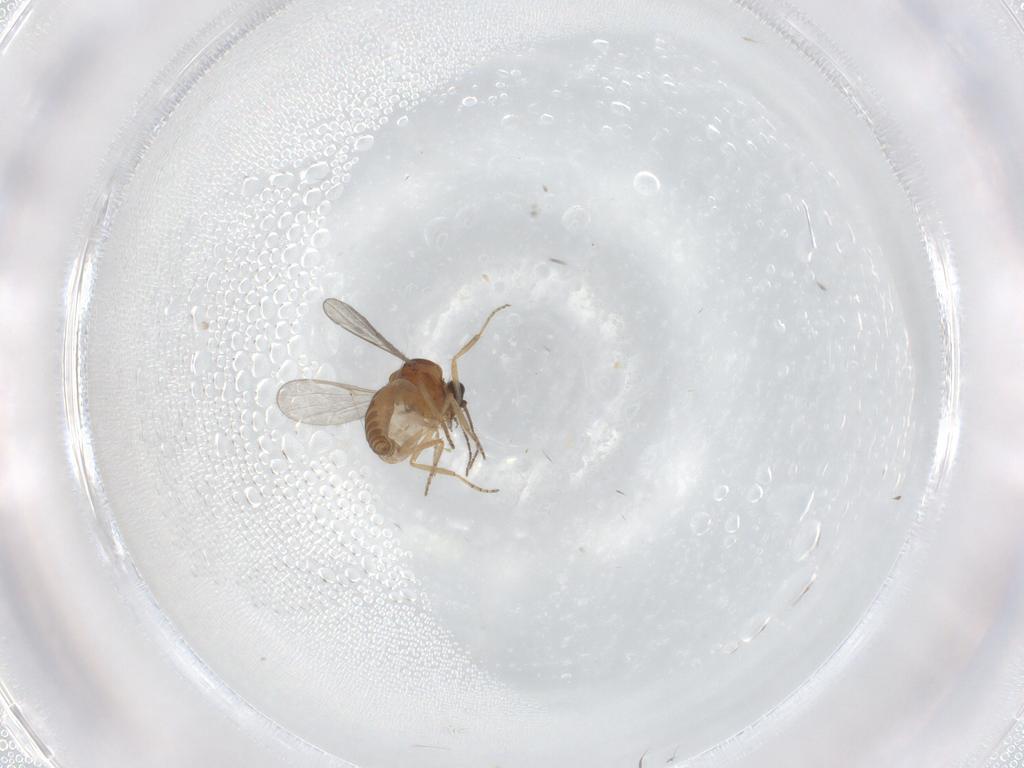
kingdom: Animalia
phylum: Arthropoda
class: Insecta
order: Diptera
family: Ceratopogonidae
